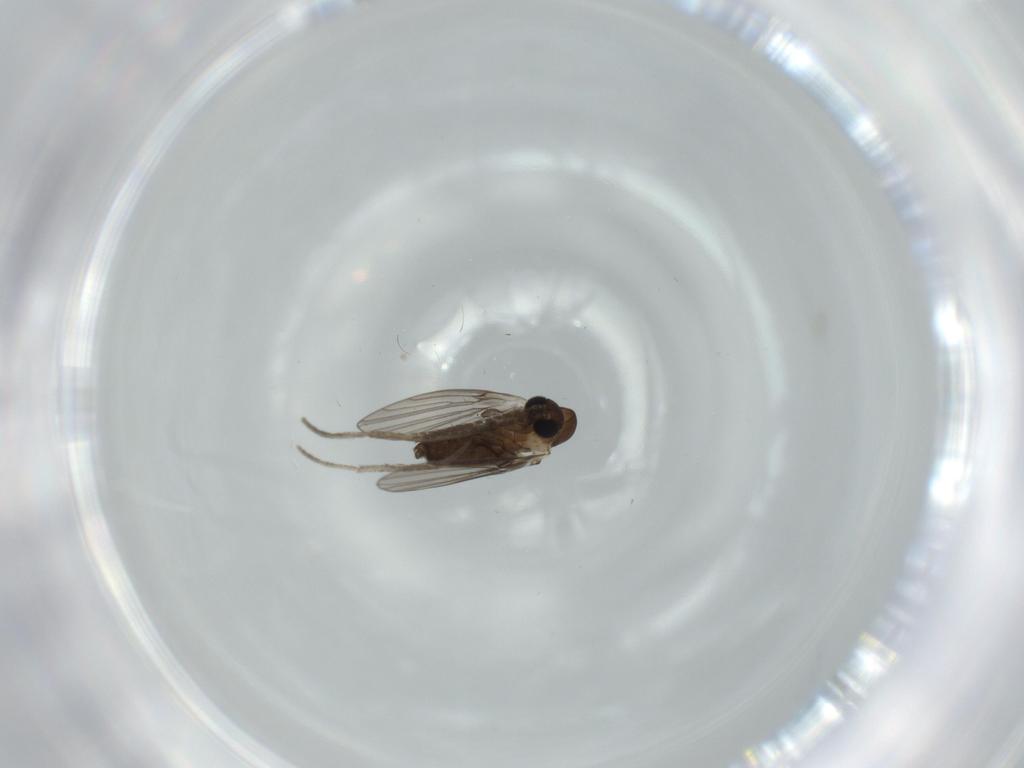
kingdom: Animalia
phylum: Arthropoda
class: Insecta
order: Diptera
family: Psychodidae
